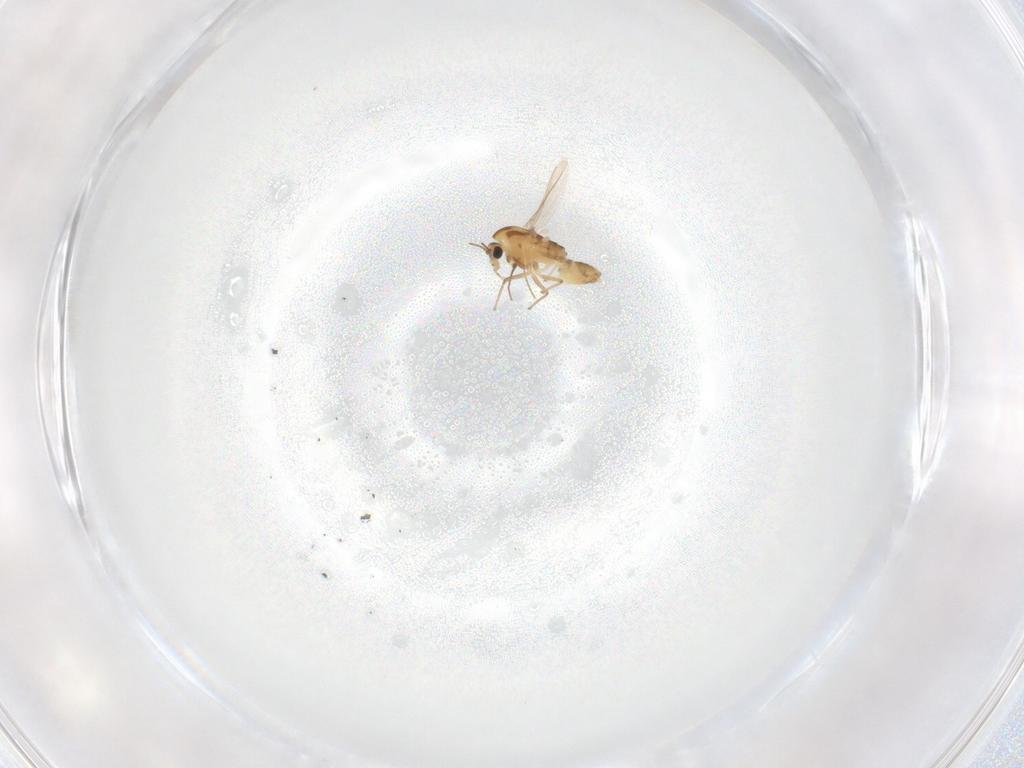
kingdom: Animalia
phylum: Arthropoda
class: Insecta
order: Diptera
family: Chironomidae
